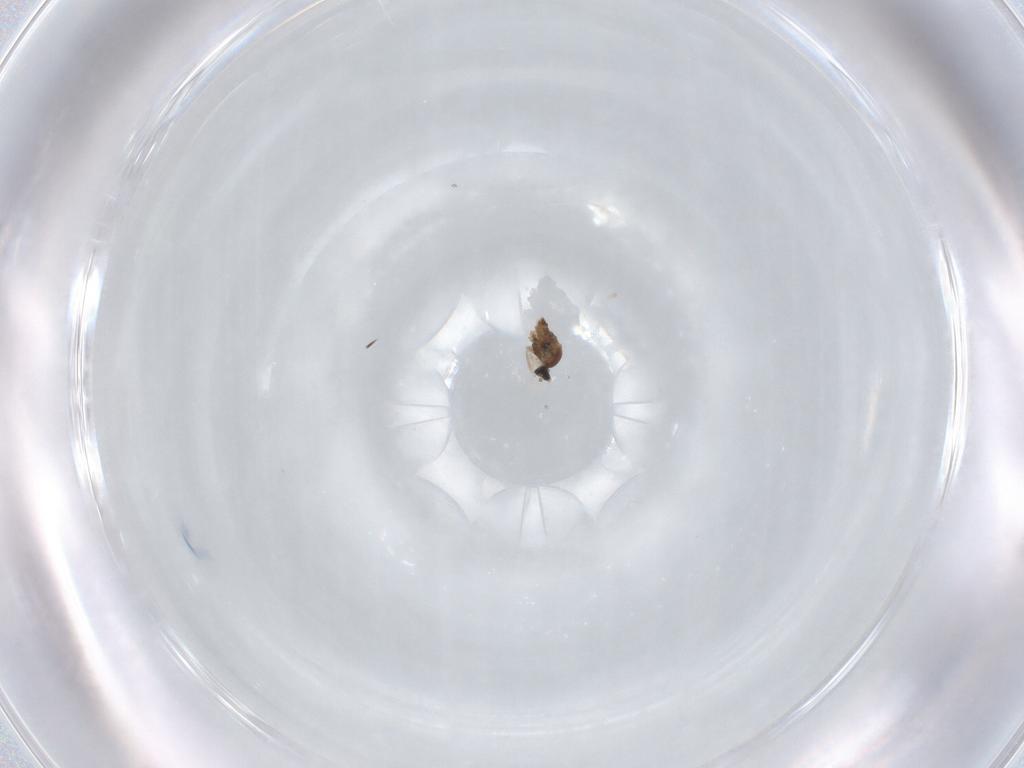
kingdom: Animalia
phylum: Arthropoda
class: Insecta
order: Diptera
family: Cecidomyiidae
